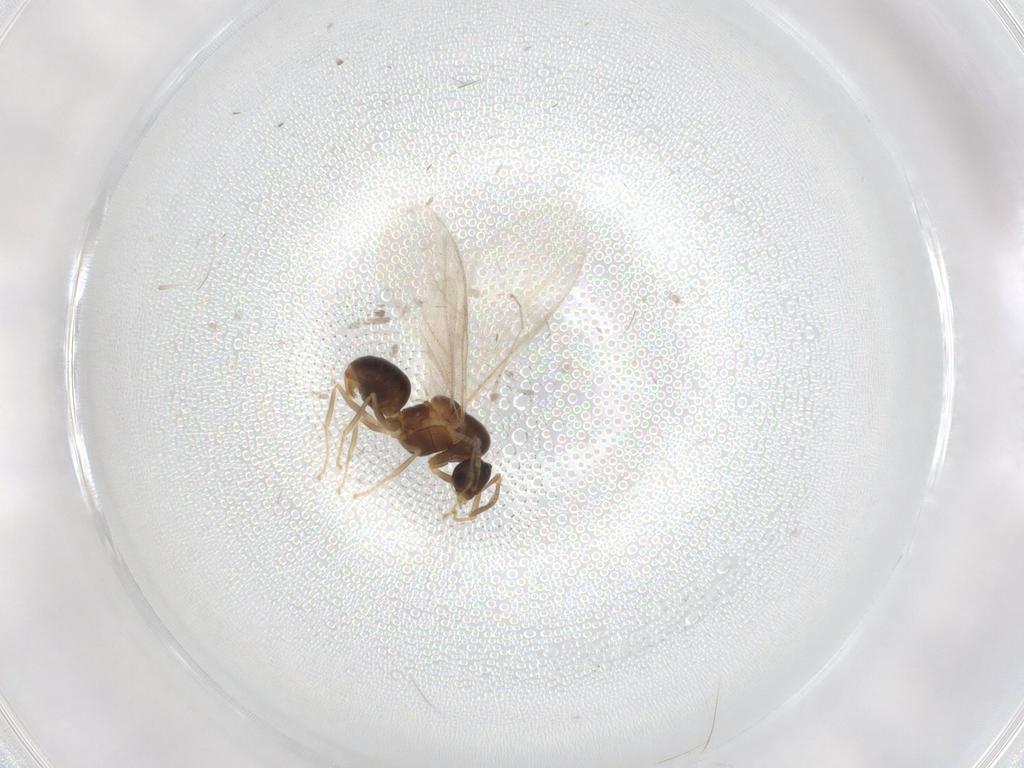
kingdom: Animalia
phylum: Arthropoda
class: Insecta
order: Hymenoptera
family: Formicidae
